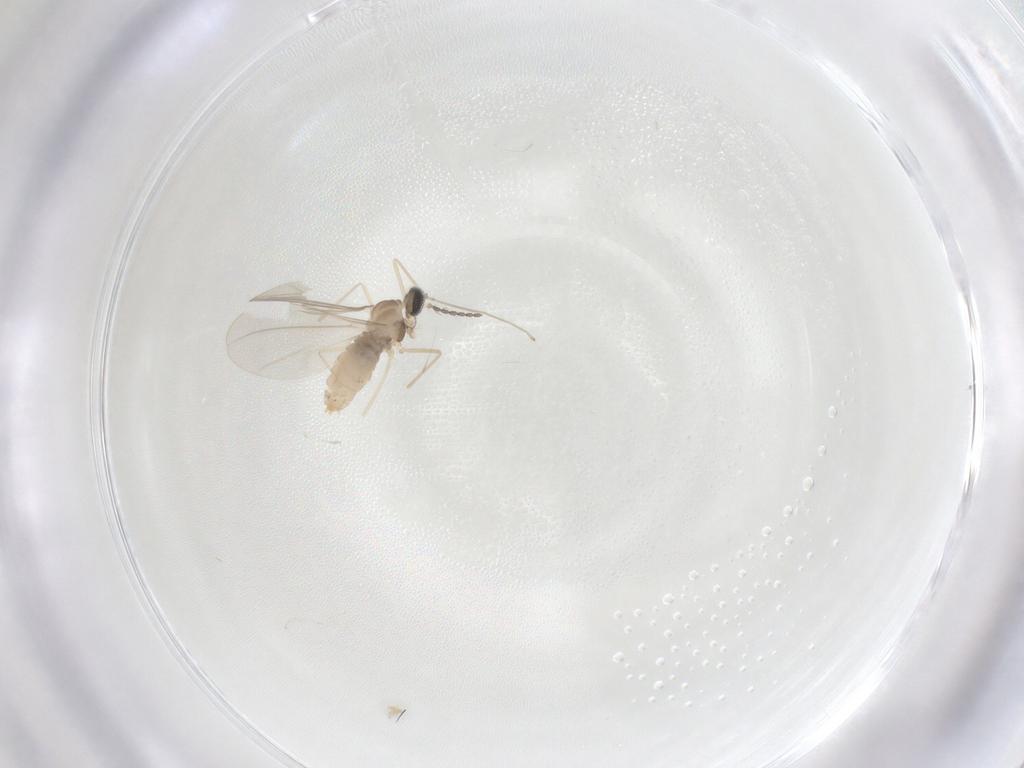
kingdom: Animalia
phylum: Arthropoda
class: Insecta
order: Diptera
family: Cecidomyiidae
